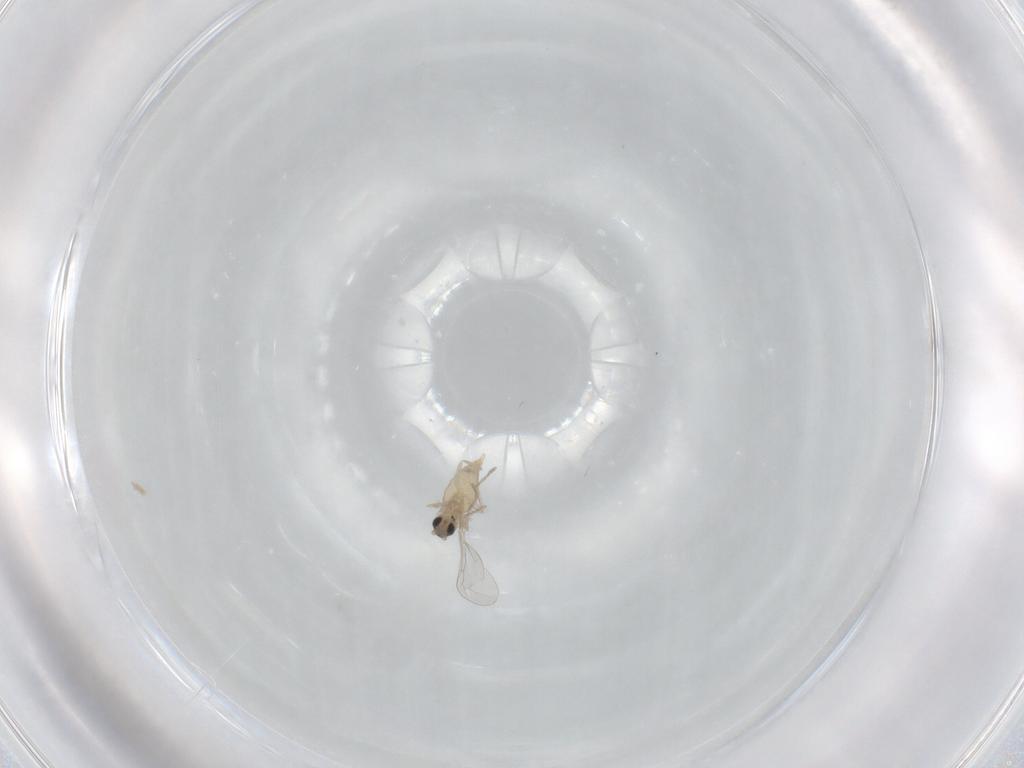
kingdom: Animalia
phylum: Arthropoda
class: Insecta
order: Diptera
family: Cecidomyiidae
